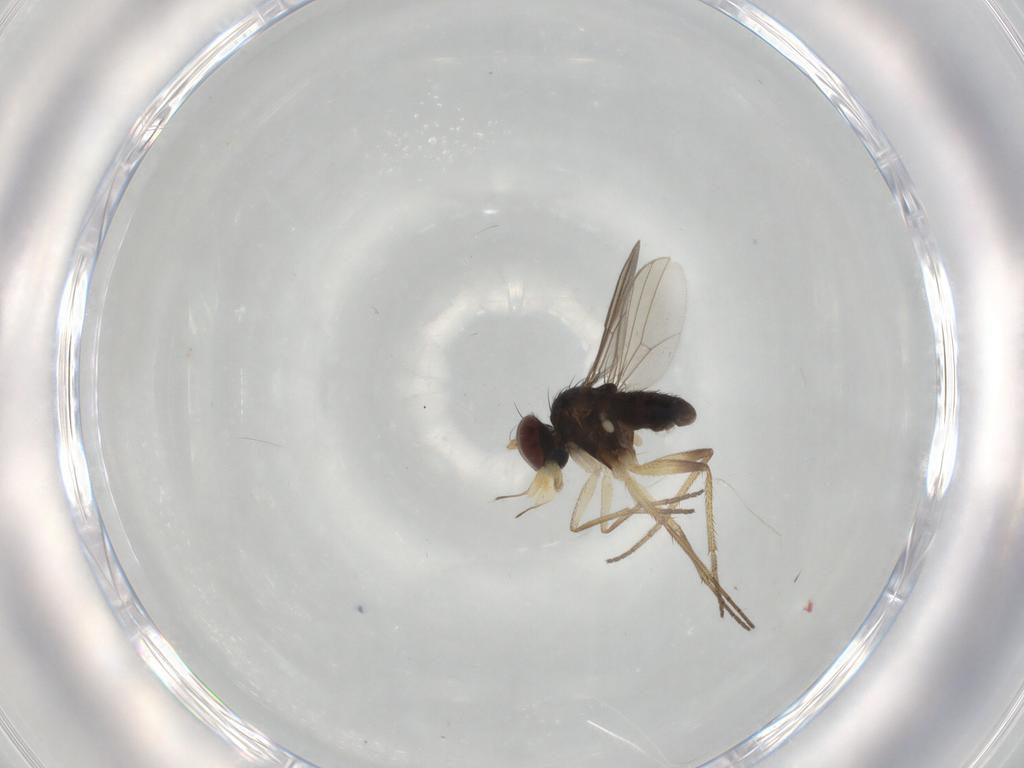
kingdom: Animalia
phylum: Arthropoda
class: Insecta
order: Diptera
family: Dolichopodidae
